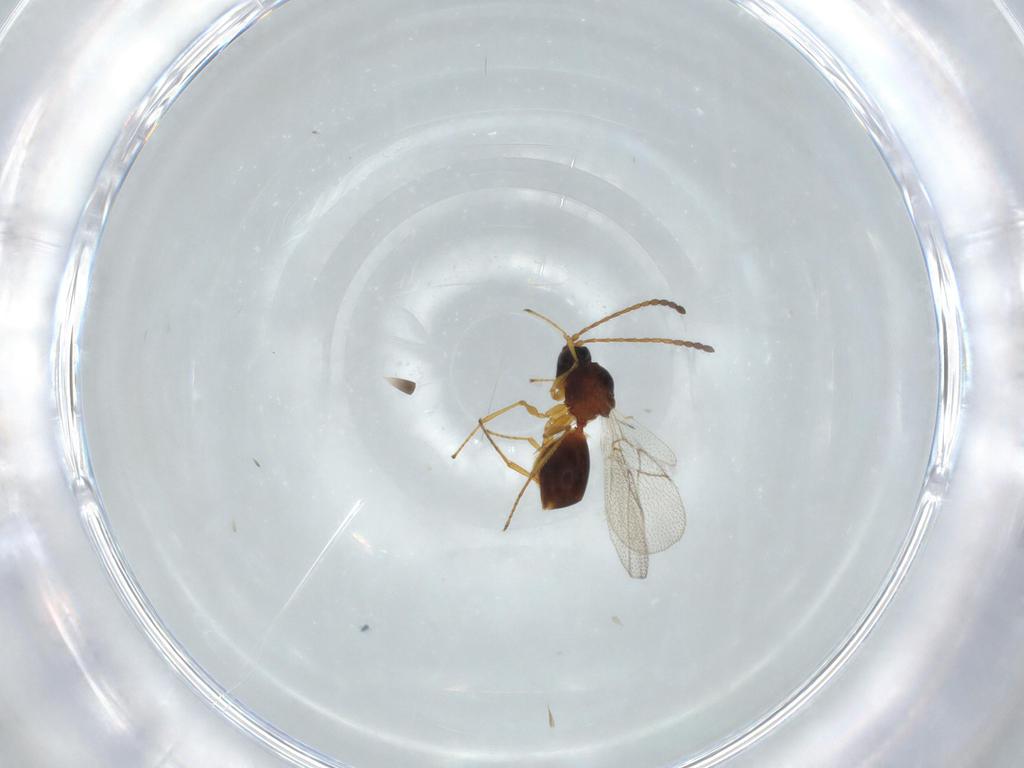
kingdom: Animalia
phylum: Arthropoda
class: Insecta
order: Hymenoptera
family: Figitidae
